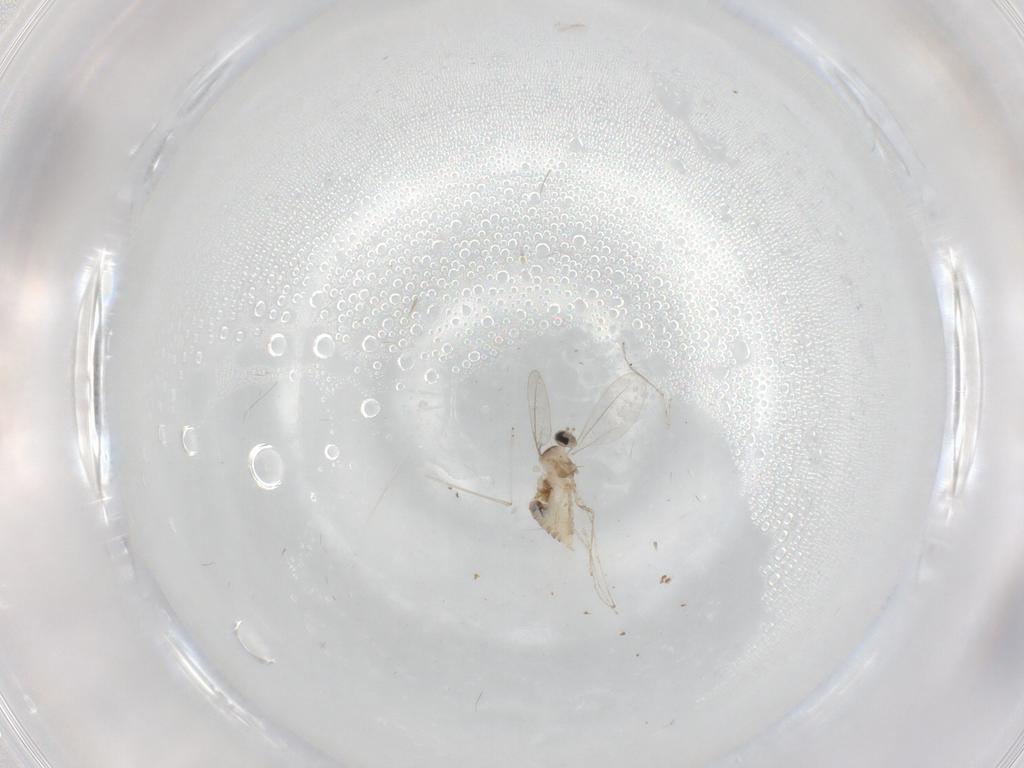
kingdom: Animalia
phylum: Arthropoda
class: Insecta
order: Diptera
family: Cecidomyiidae
